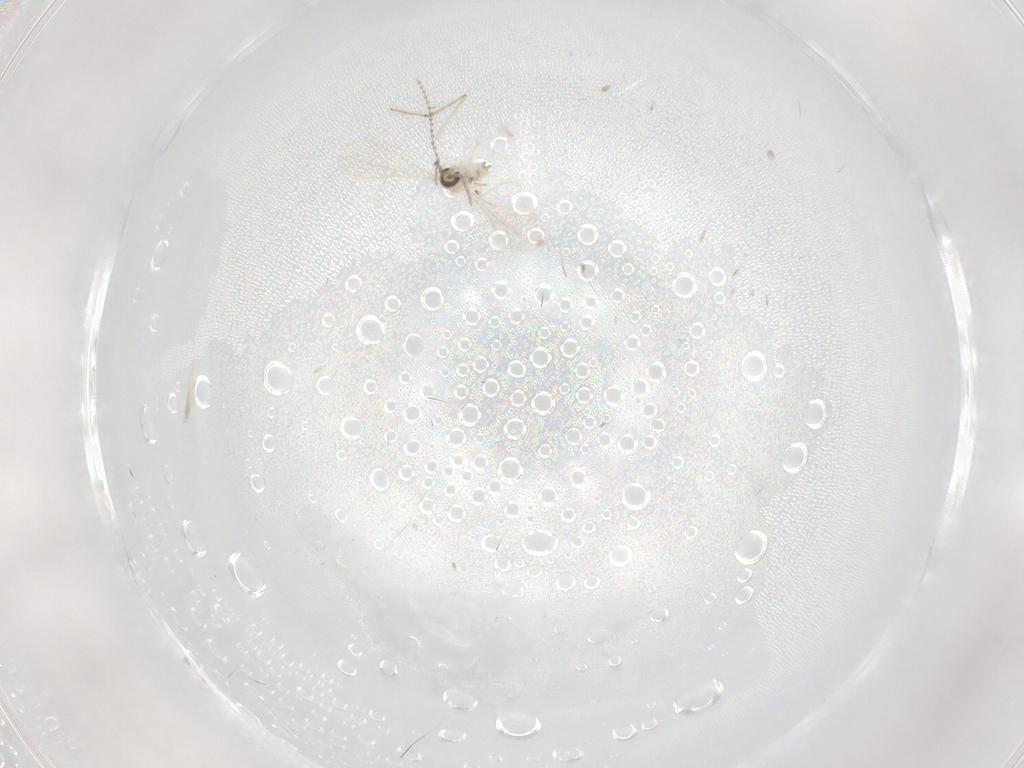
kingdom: Animalia
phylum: Arthropoda
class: Insecta
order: Diptera
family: Cecidomyiidae
